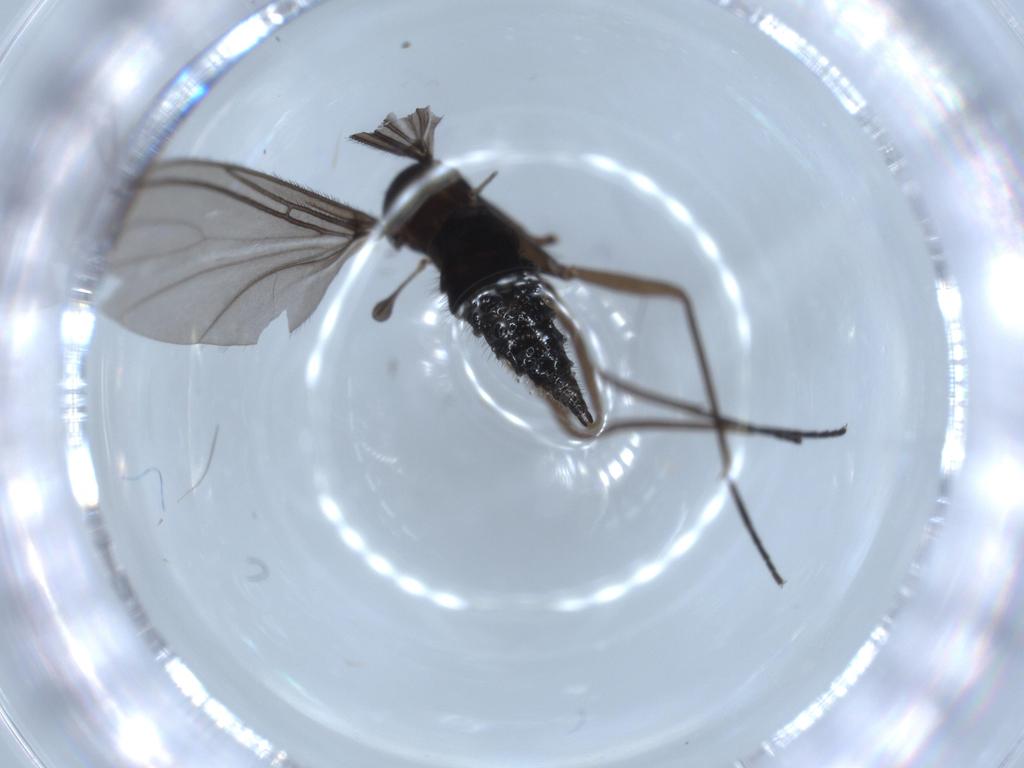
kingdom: Animalia
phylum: Arthropoda
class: Insecta
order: Diptera
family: Sciaridae
